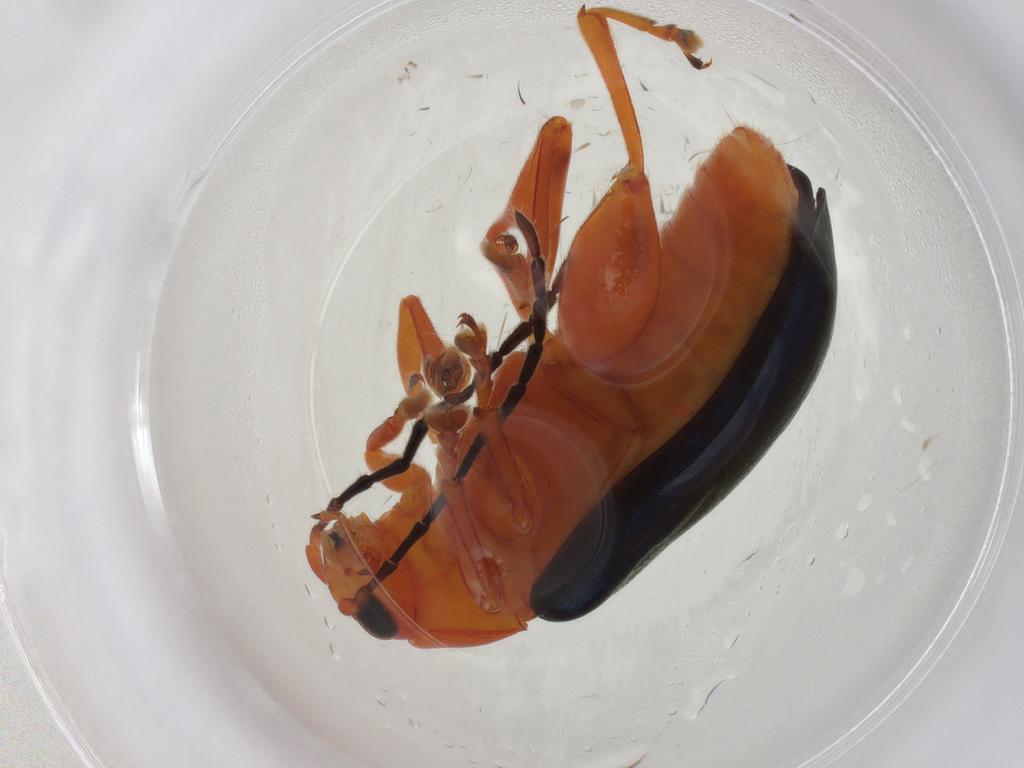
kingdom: Animalia
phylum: Arthropoda
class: Insecta
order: Coleoptera
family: Chrysomelidae
